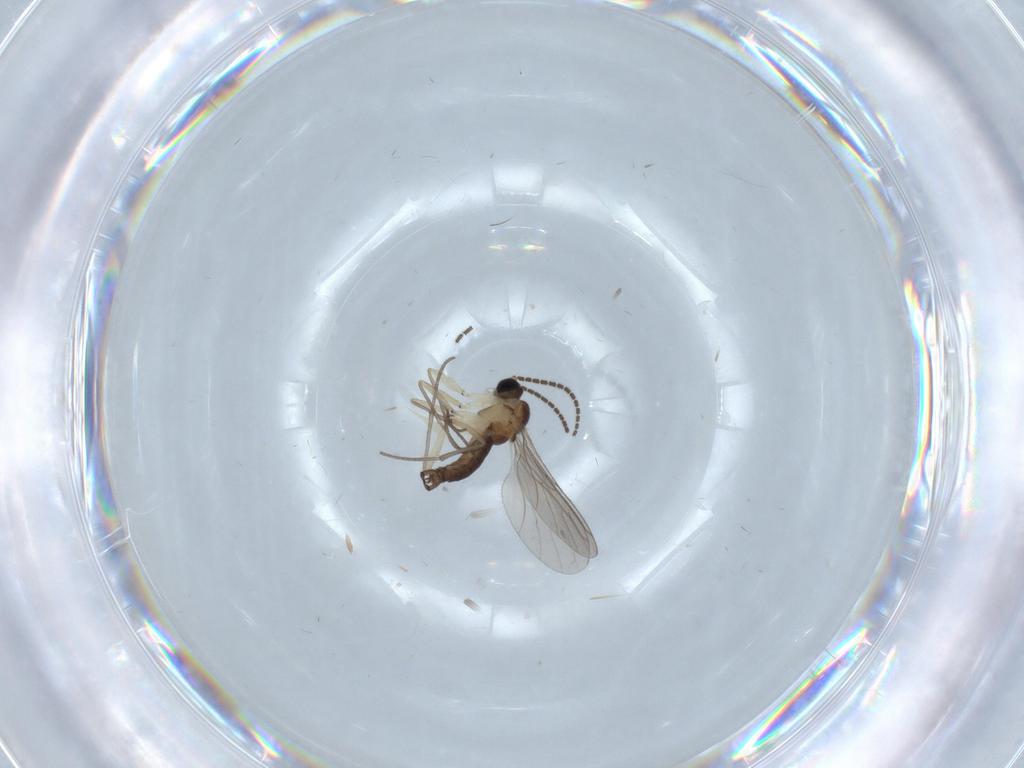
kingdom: Animalia
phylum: Arthropoda
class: Insecta
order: Diptera
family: Sciaridae
